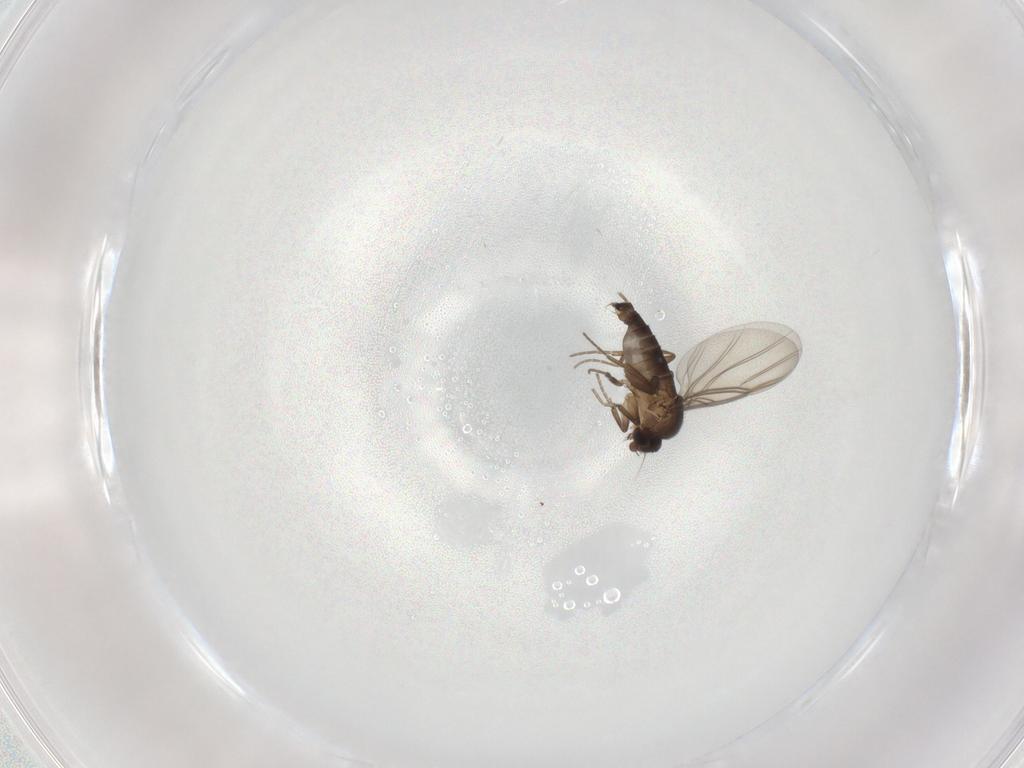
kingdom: Animalia
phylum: Arthropoda
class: Insecta
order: Diptera
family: Phoridae
